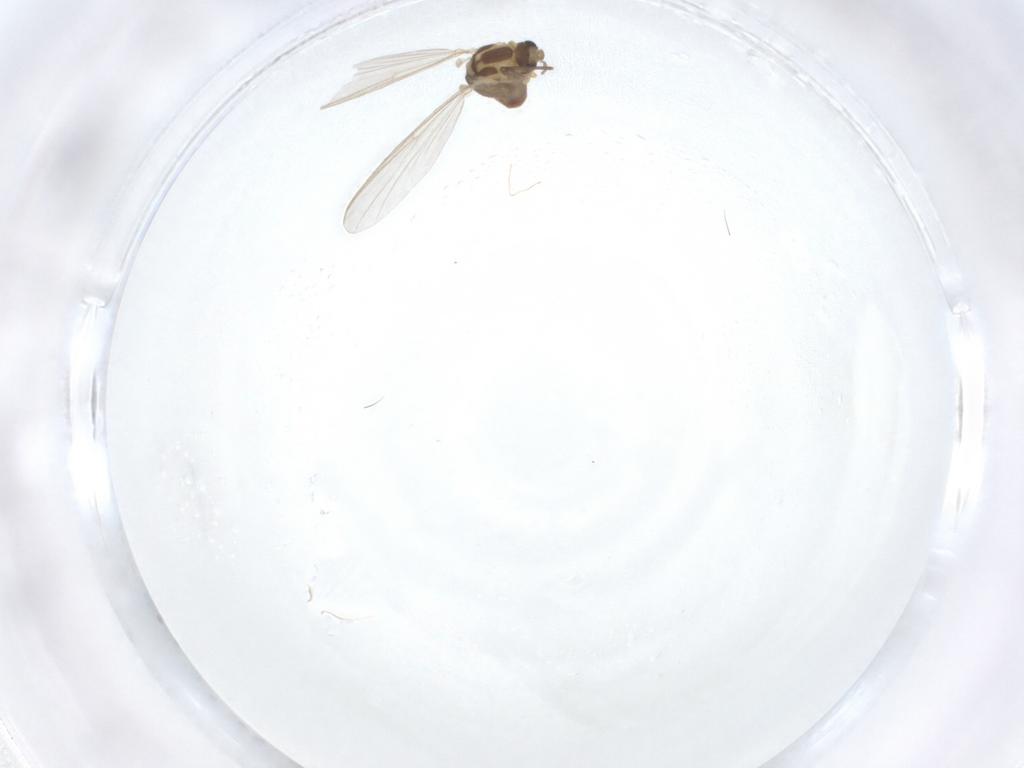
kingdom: Animalia
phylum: Arthropoda
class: Insecta
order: Diptera
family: Chironomidae
